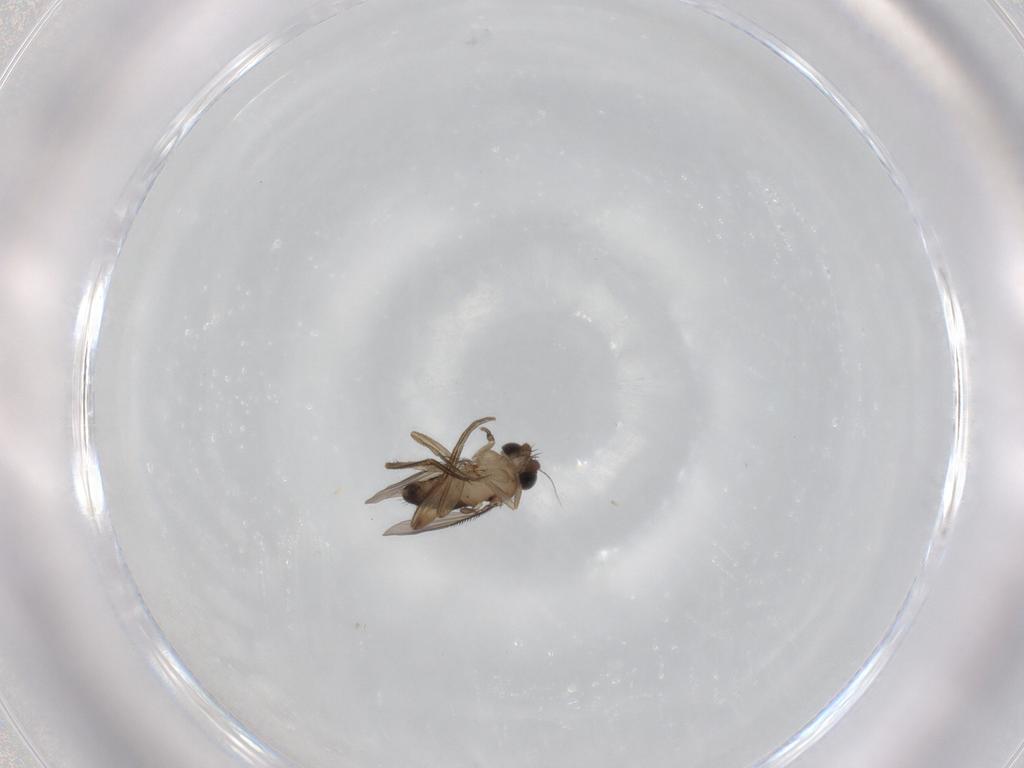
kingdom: Animalia
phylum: Arthropoda
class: Insecta
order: Diptera
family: Phoridae
